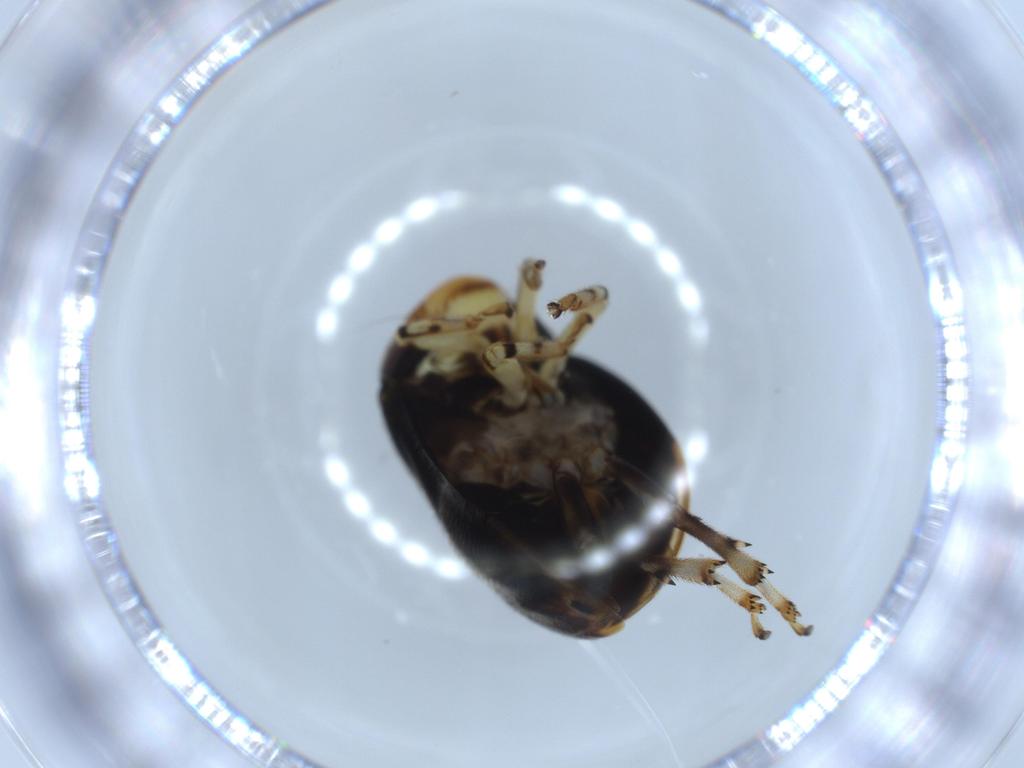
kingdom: Animalia
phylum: Arthropoda
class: Insecta
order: Hemiptera
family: Clastopteridae
